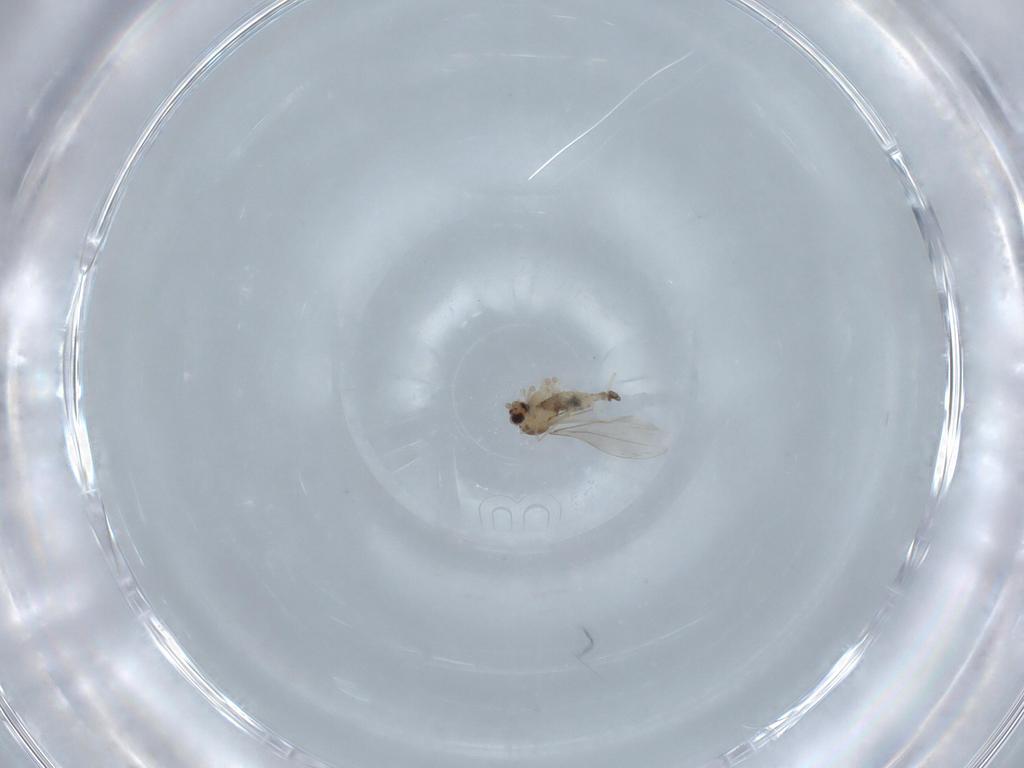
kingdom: Animalia
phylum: Arthropoda
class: Insecta
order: Diptera
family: Cecidomyiidae
